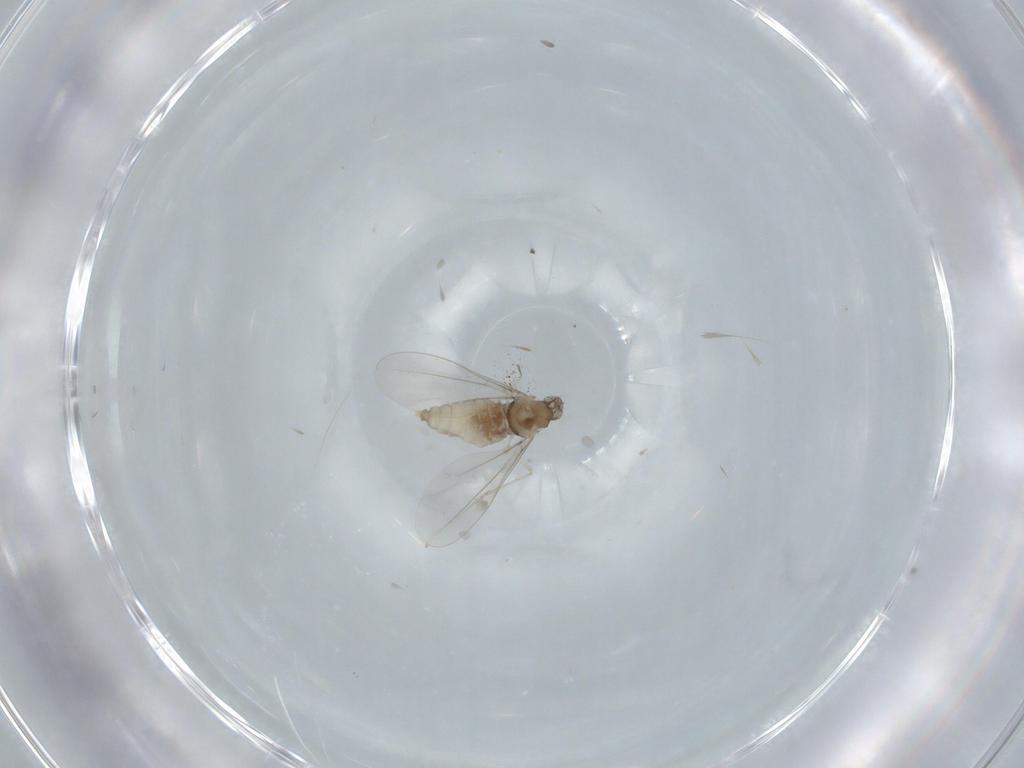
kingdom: Animalia
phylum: Arthropoda
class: Insecta
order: Diptera
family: Cecidomyiidae
